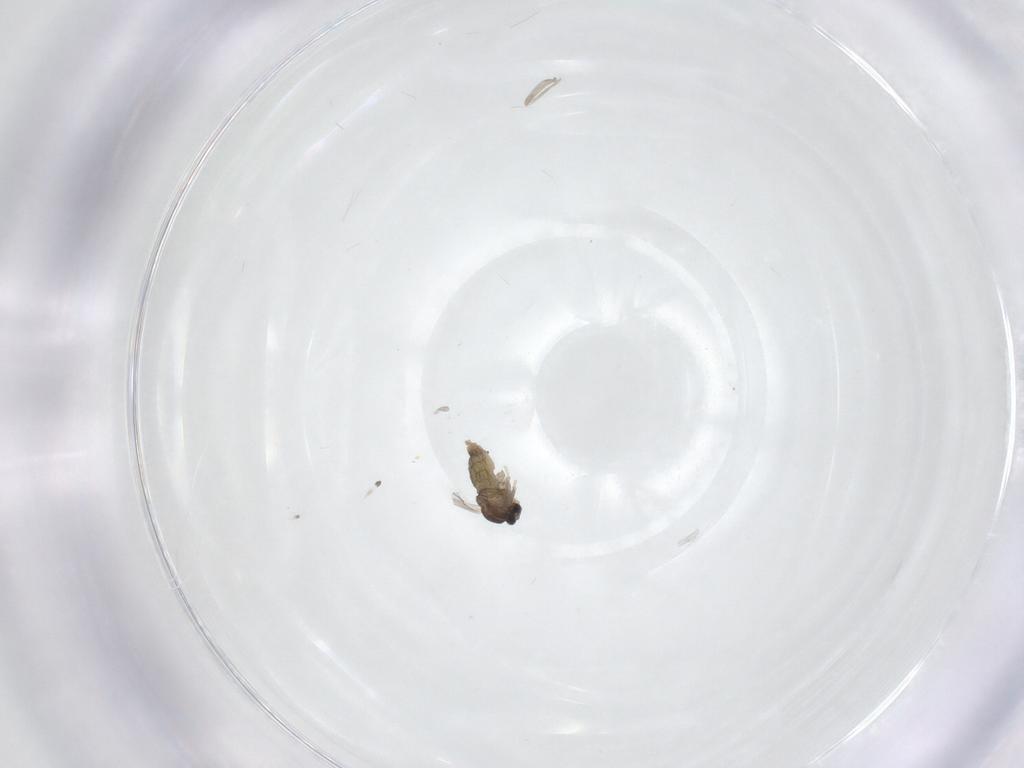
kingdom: Animalia
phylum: Arthropoda
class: Insecta
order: Diptera
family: Cecidomyiidae
